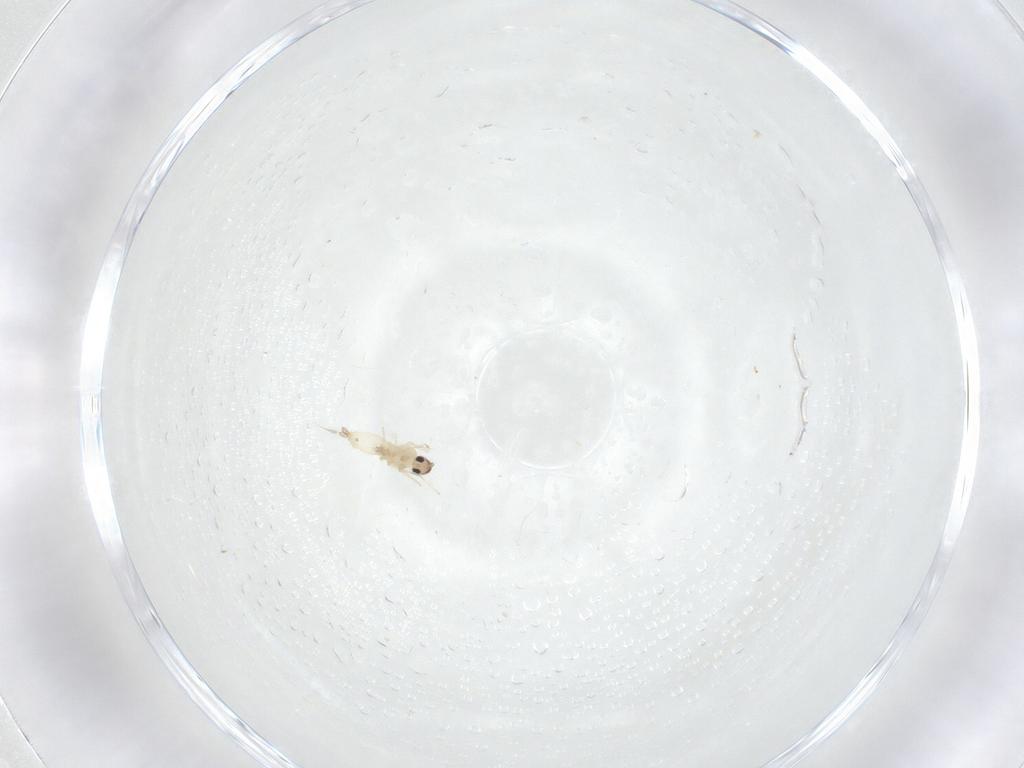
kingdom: Animalia
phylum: Arthropoda
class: Insecta
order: Diptera
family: Cecidomyiidae
